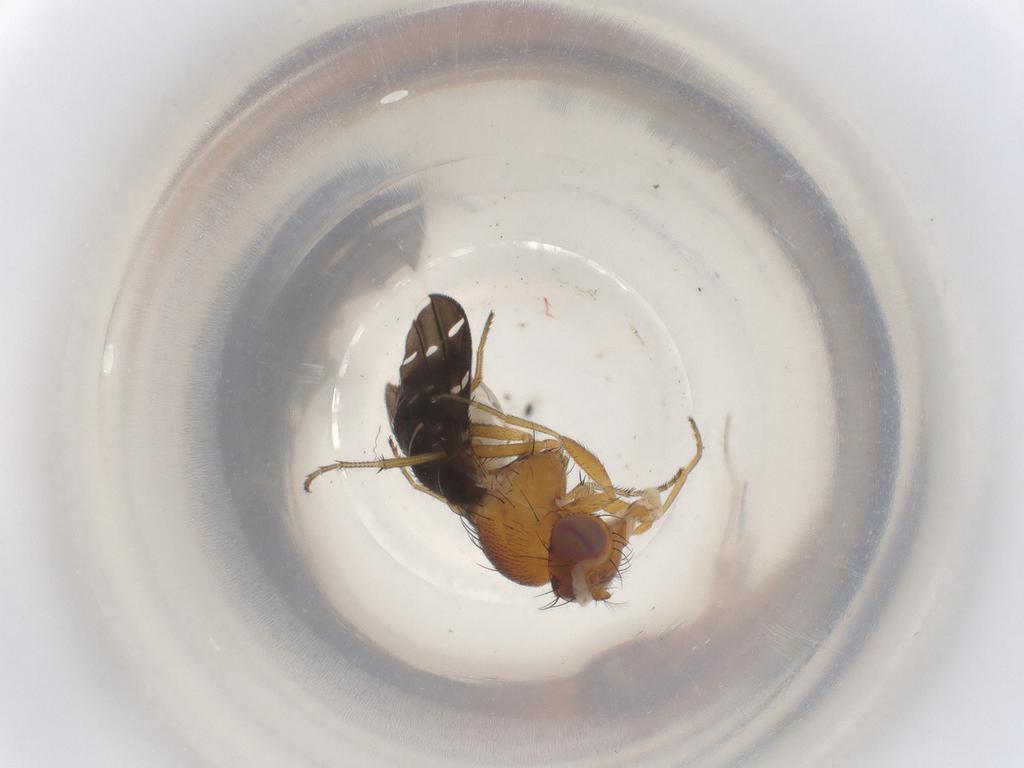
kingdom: Animalia
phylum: Arthropoda
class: Insecta
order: Diptera
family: Ephydridae
